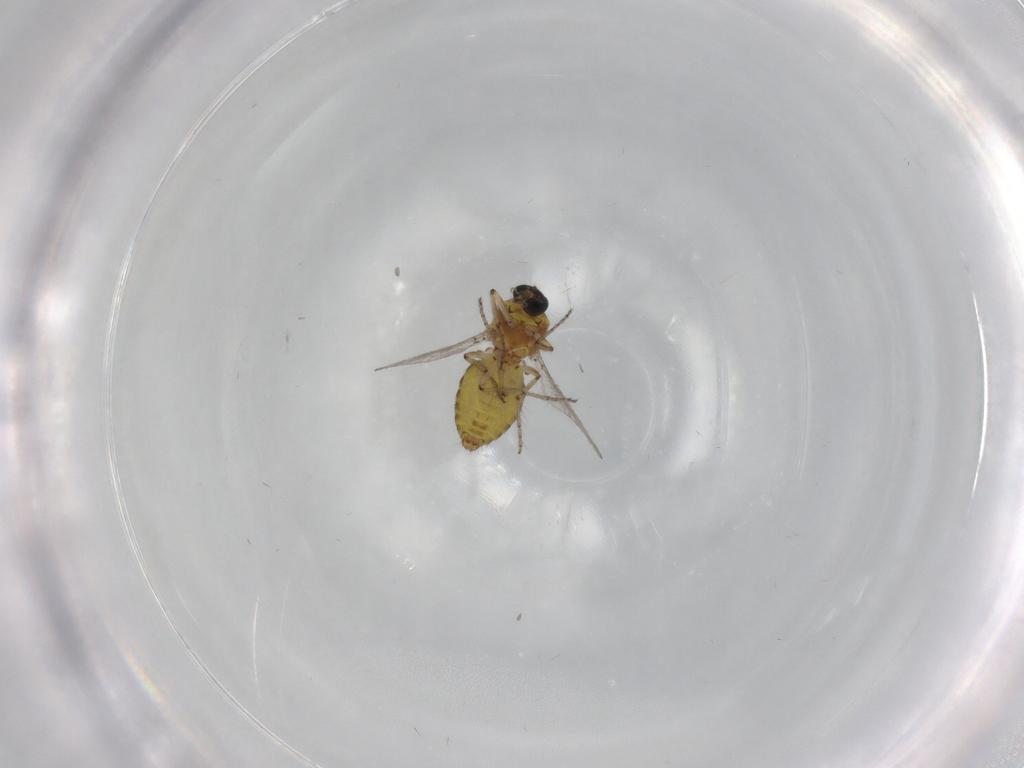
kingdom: Animalia
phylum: Arthropoda
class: Insecta
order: Diptera
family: Ceratopogonidae
